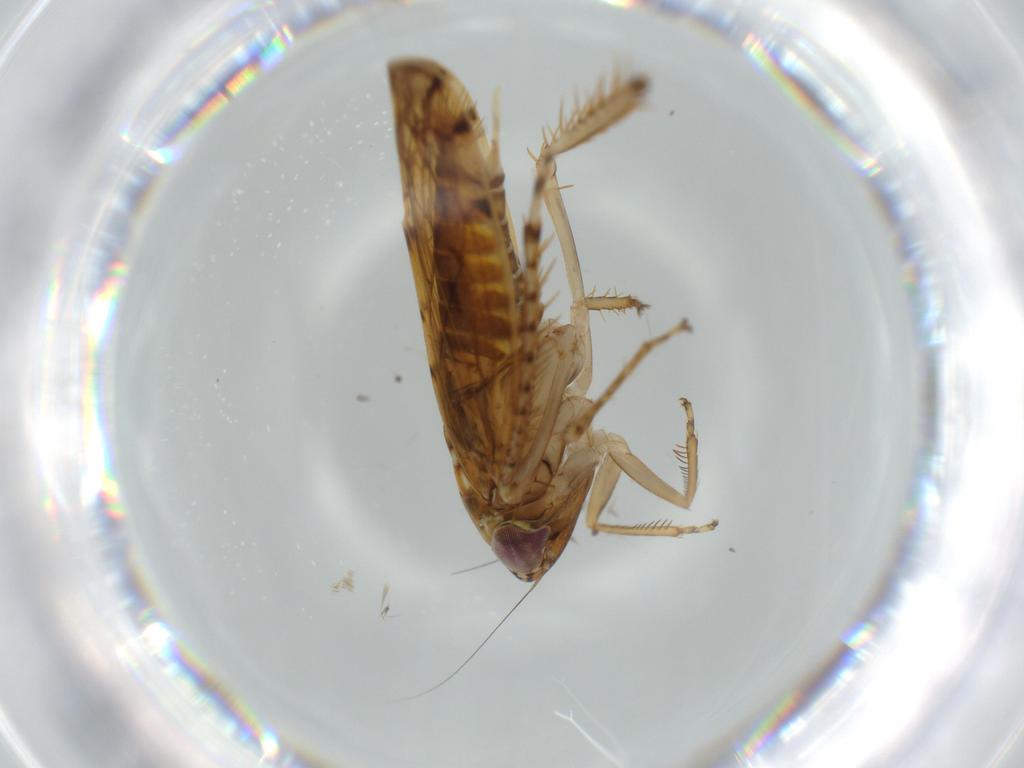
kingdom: Animalia
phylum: Arthropoda
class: Insecta
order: Hemiptera
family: Cicadellidae
